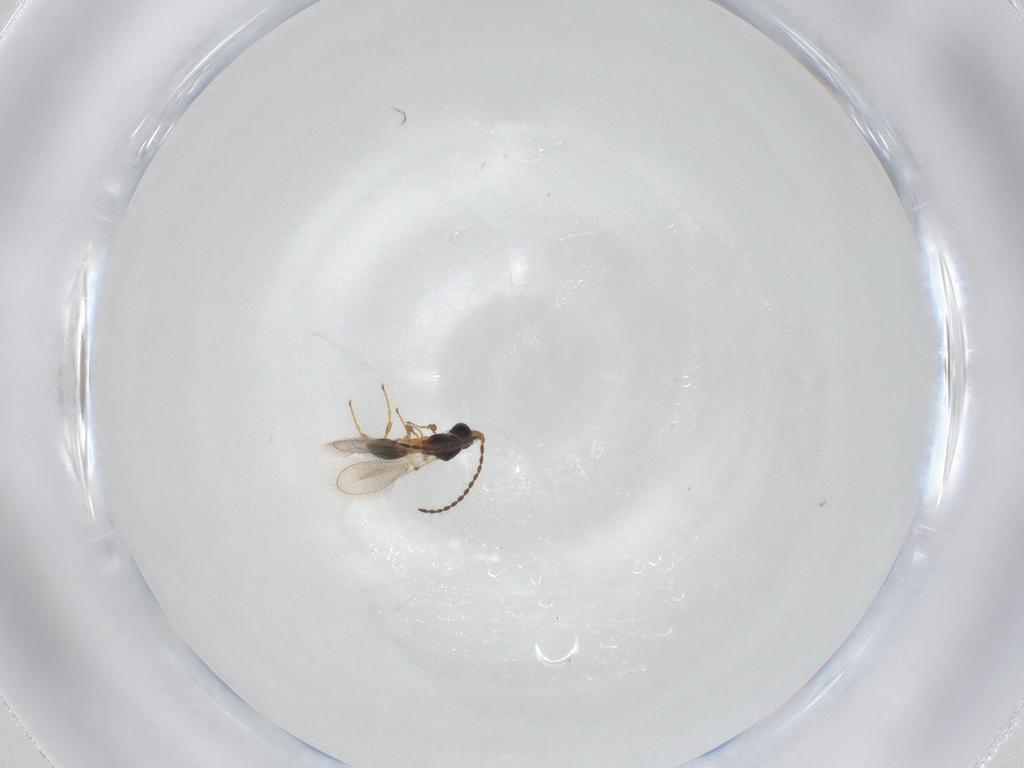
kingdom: Animalia
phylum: Arthropoda
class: Insecta
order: Hymenoptera
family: Diapriidae
